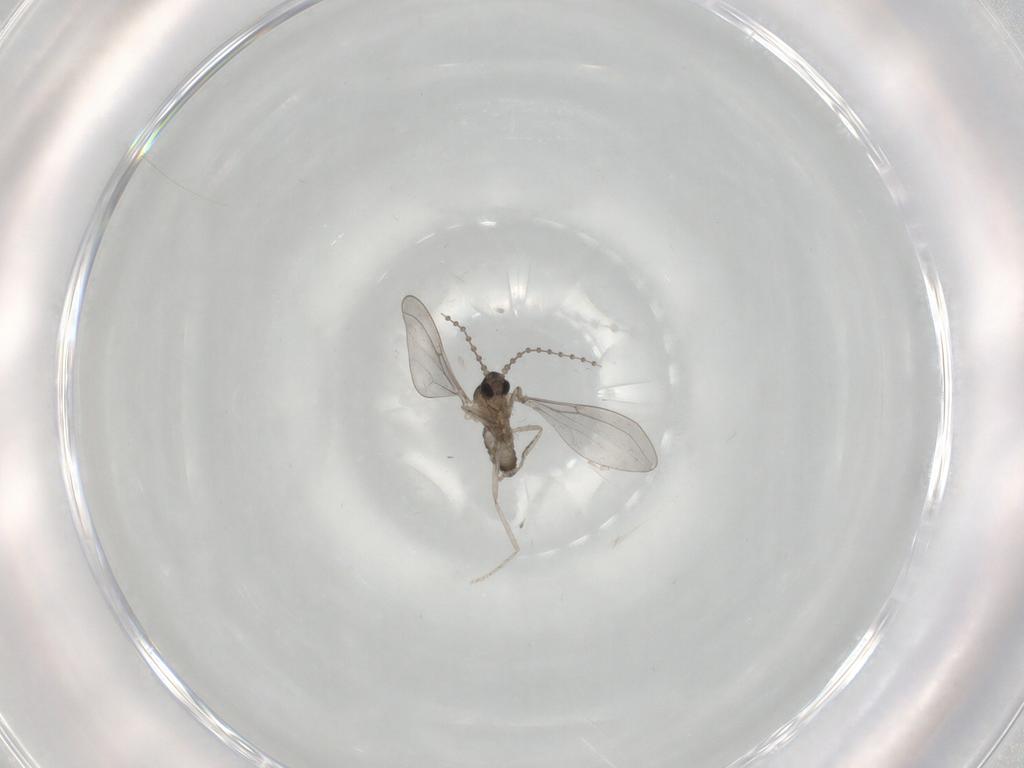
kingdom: Animalia
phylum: Arthropoda
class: Insecta
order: Diptera
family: Cecidomyiidae
